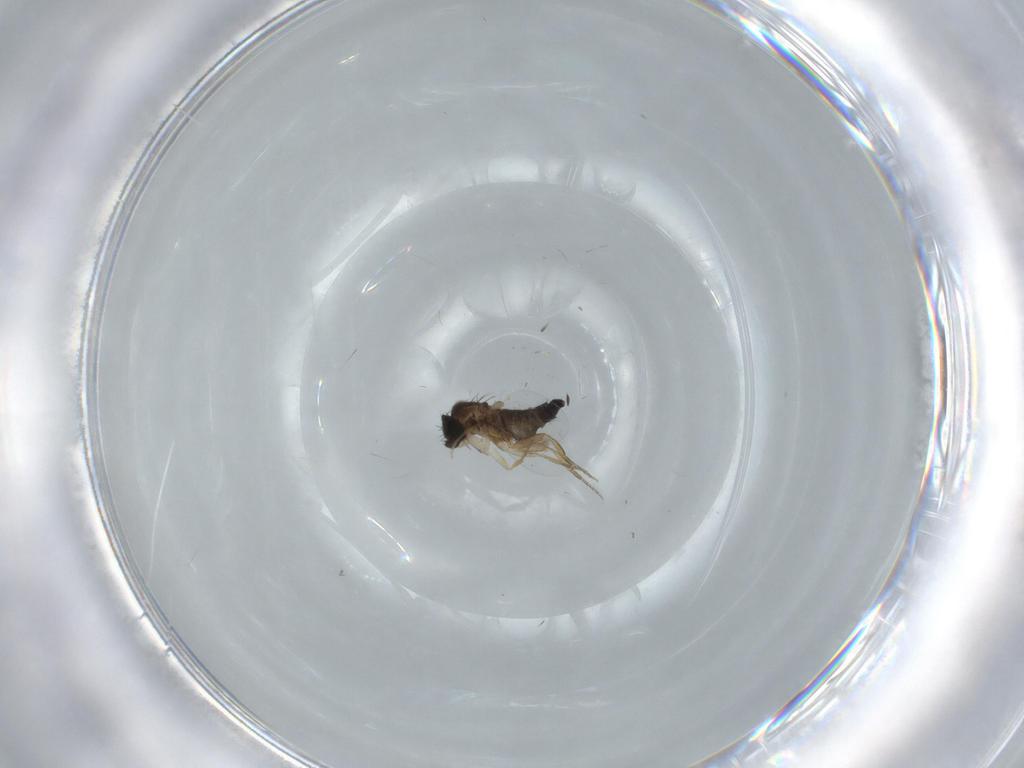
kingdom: Animalia
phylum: Arthropoda
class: Insecta
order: Diptera
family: Phoridae
